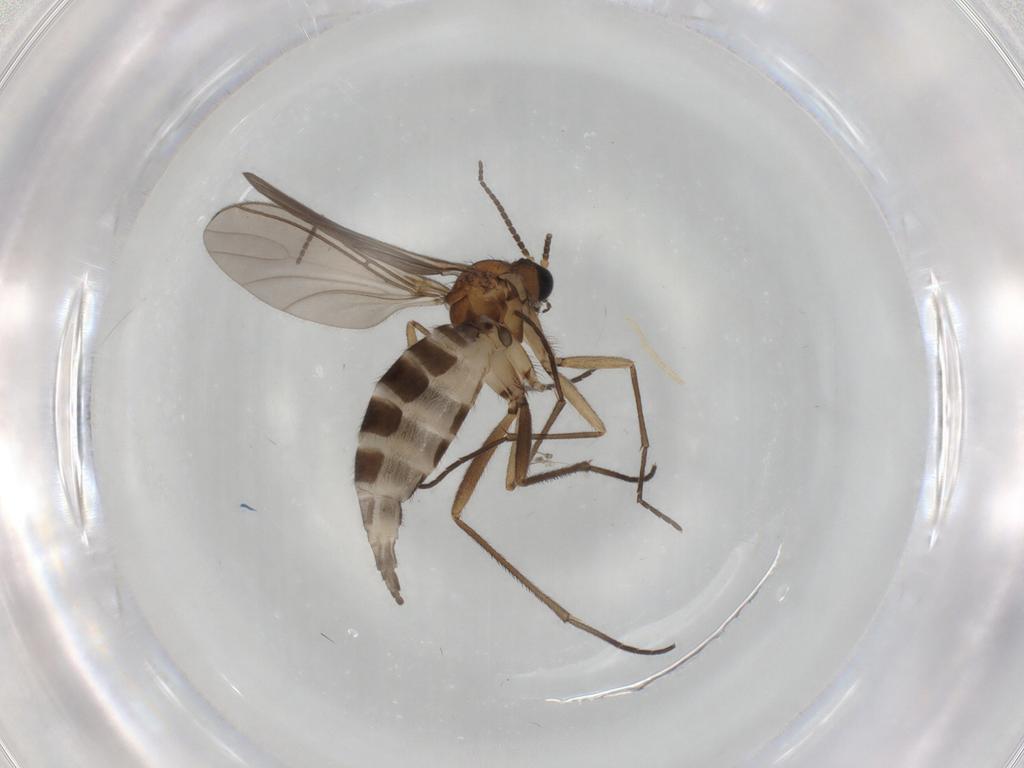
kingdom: Animalia
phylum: Arthropoda
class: Insecta
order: Diptera
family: Sciaridae
